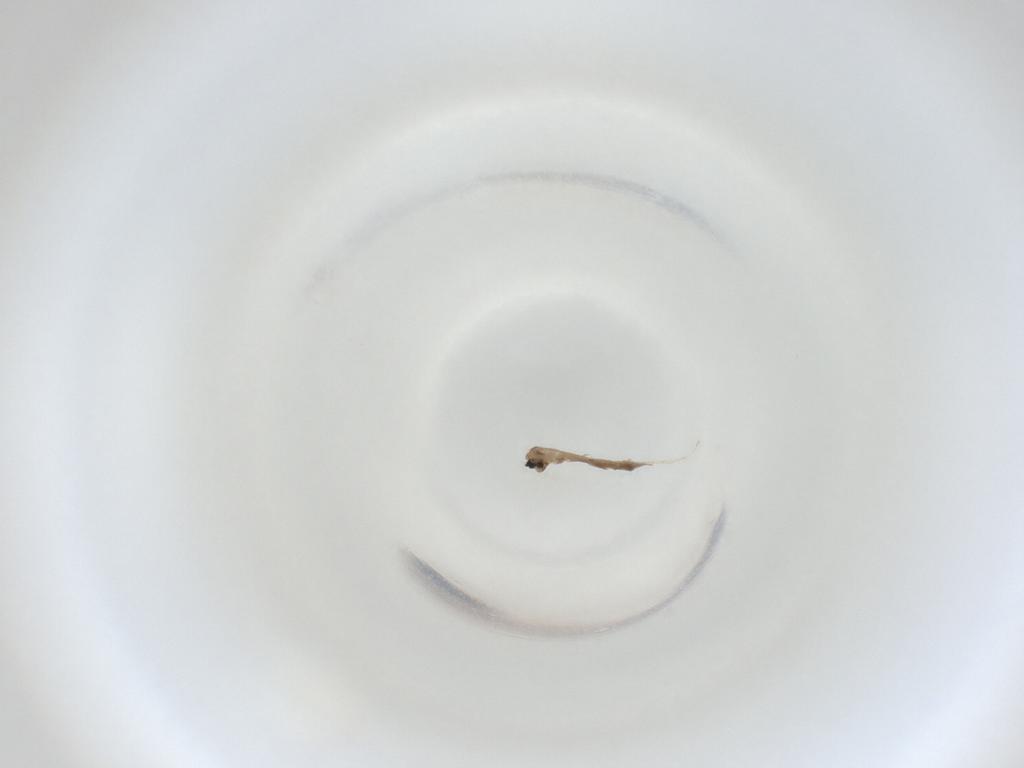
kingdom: Animalia
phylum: Arthropoda
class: Insecta
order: Diptera
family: Cecidomyiidae
